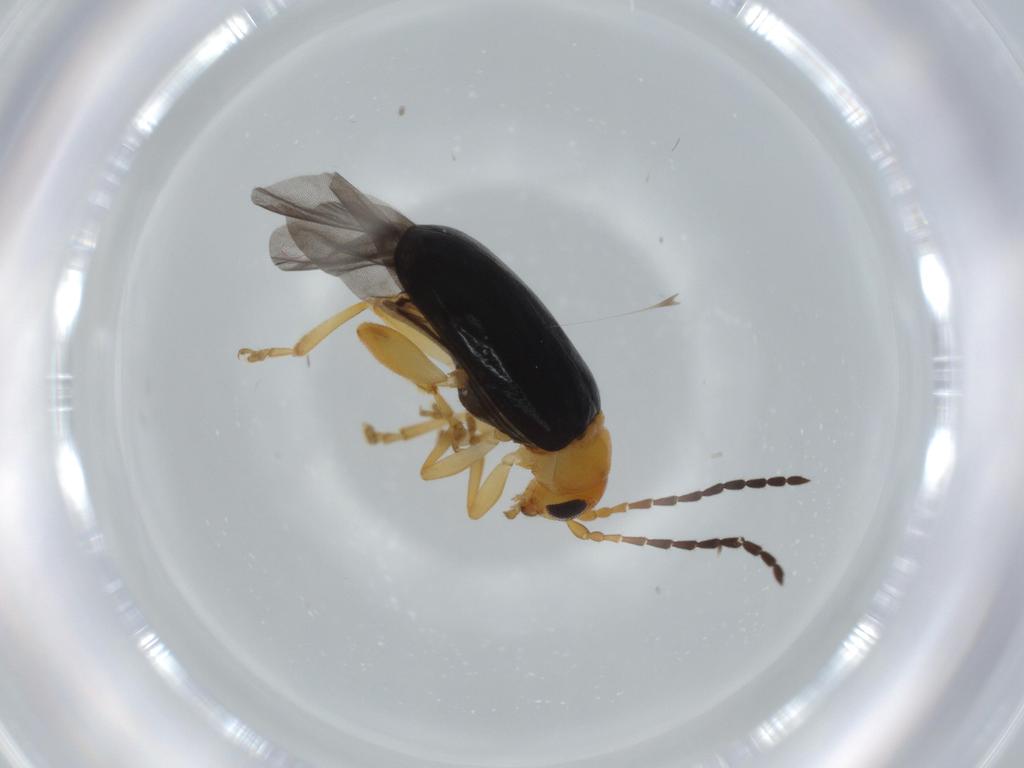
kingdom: Animalia
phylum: Arthropoda
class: Insecta
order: Coleoptera
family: Chrysomelidae
